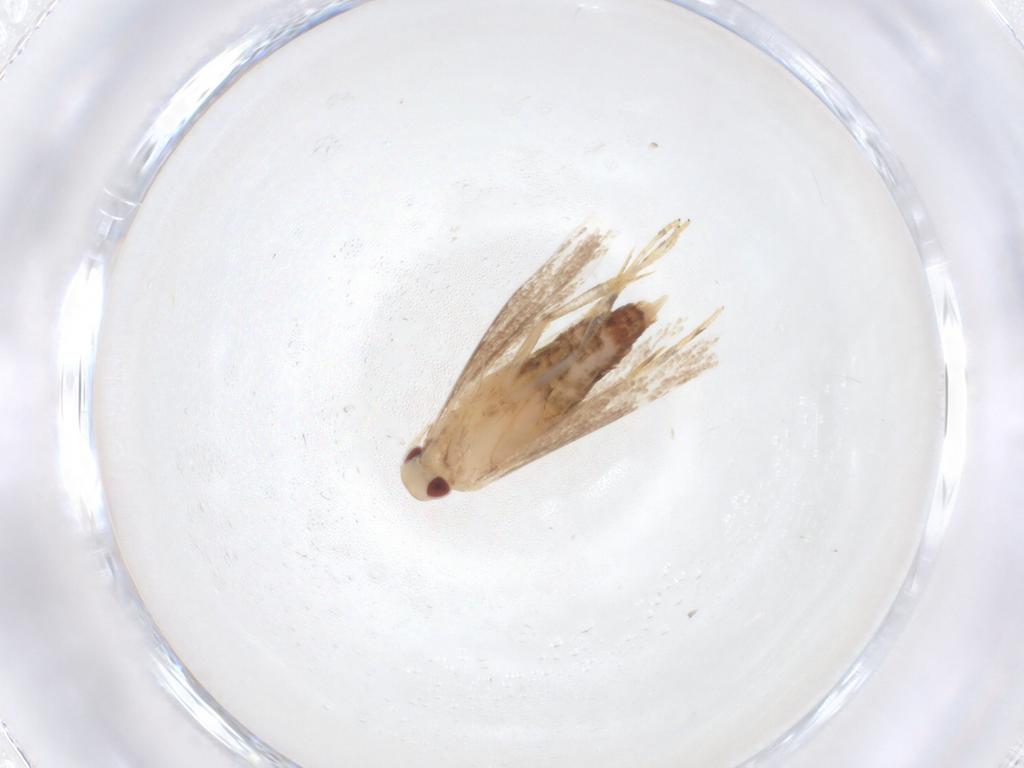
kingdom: Animalia
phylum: Arthropoda
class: Insecta
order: Lepidoptera
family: Cosmopterigidae
